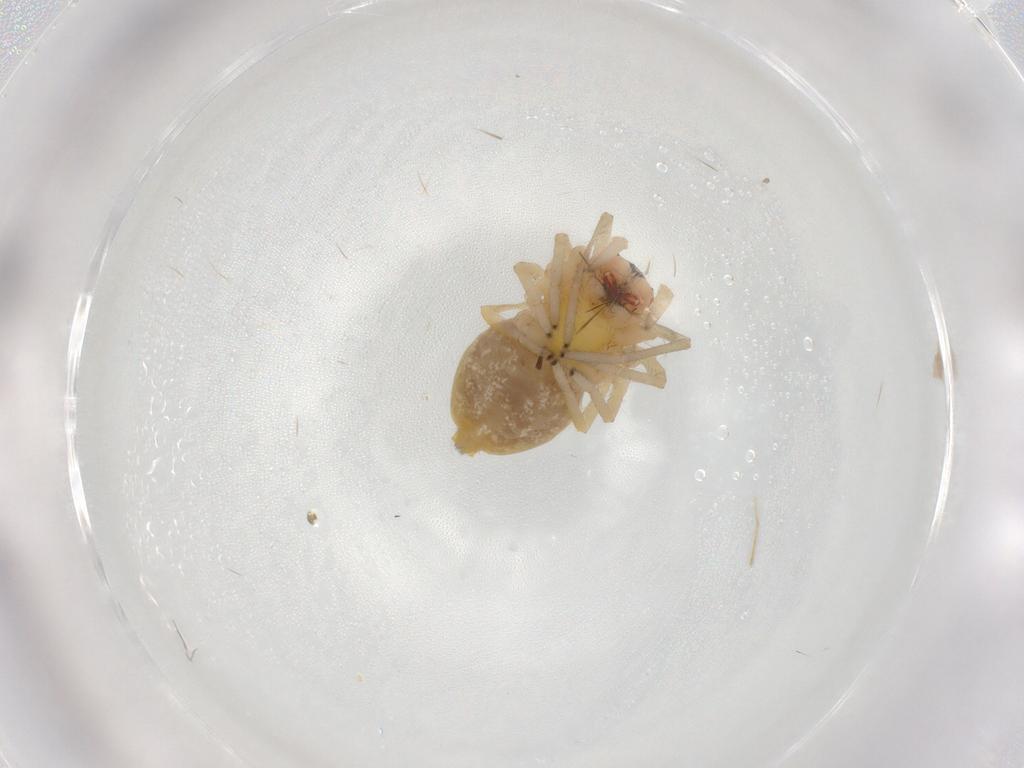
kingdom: Animalia
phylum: Arthropoda
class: Arachnida
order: Araneae
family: Cheiracanthiidae
